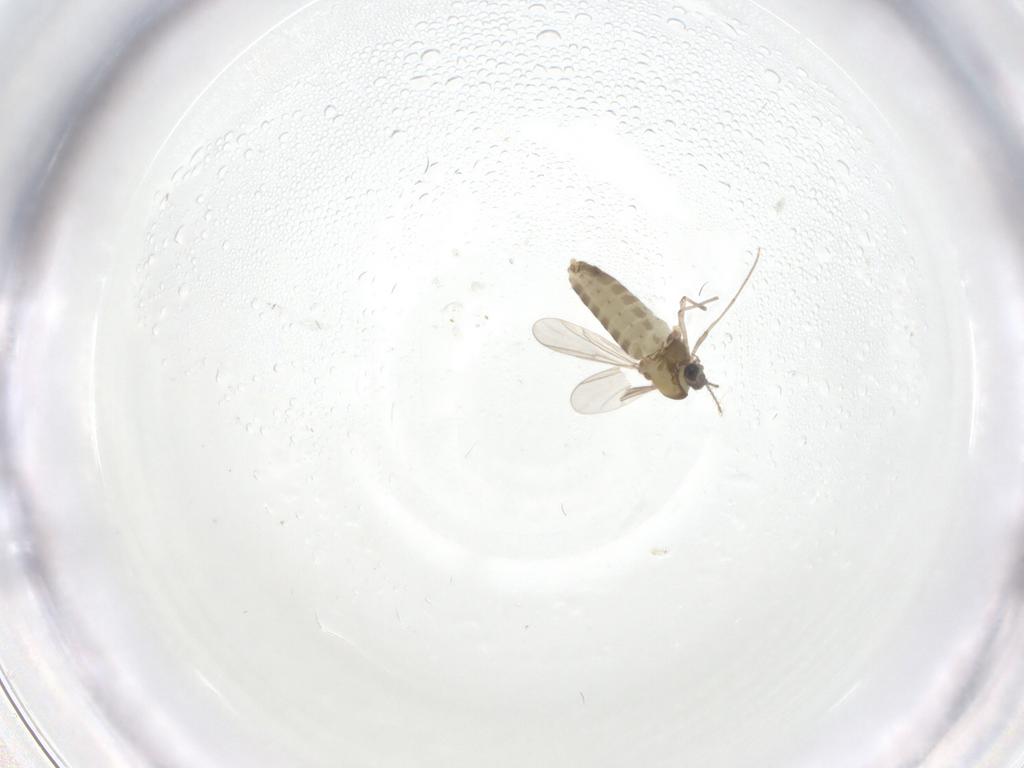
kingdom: Animalia
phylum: Arthropoda
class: Insecta
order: Diptera
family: Chironomidae
